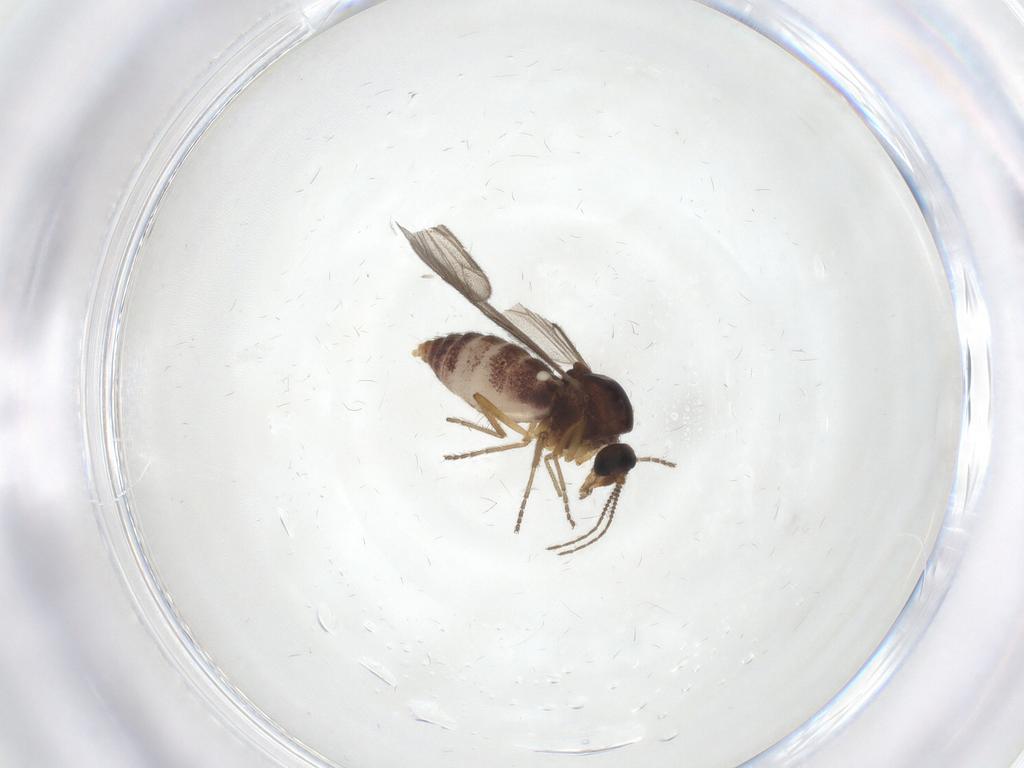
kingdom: Animalia
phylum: Arthropoda
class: Insecta
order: Diptera
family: Ceratopogonidae
